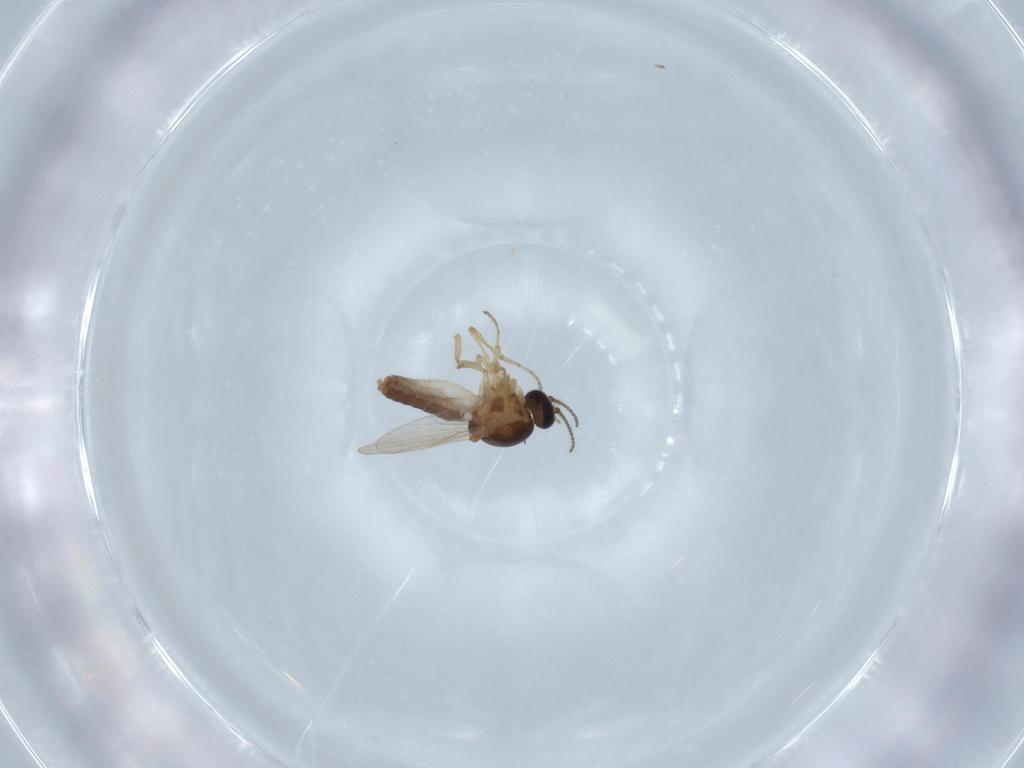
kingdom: Animalia
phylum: Arthropoda
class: Insecta
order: Diptera
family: Ceratopogonidae
